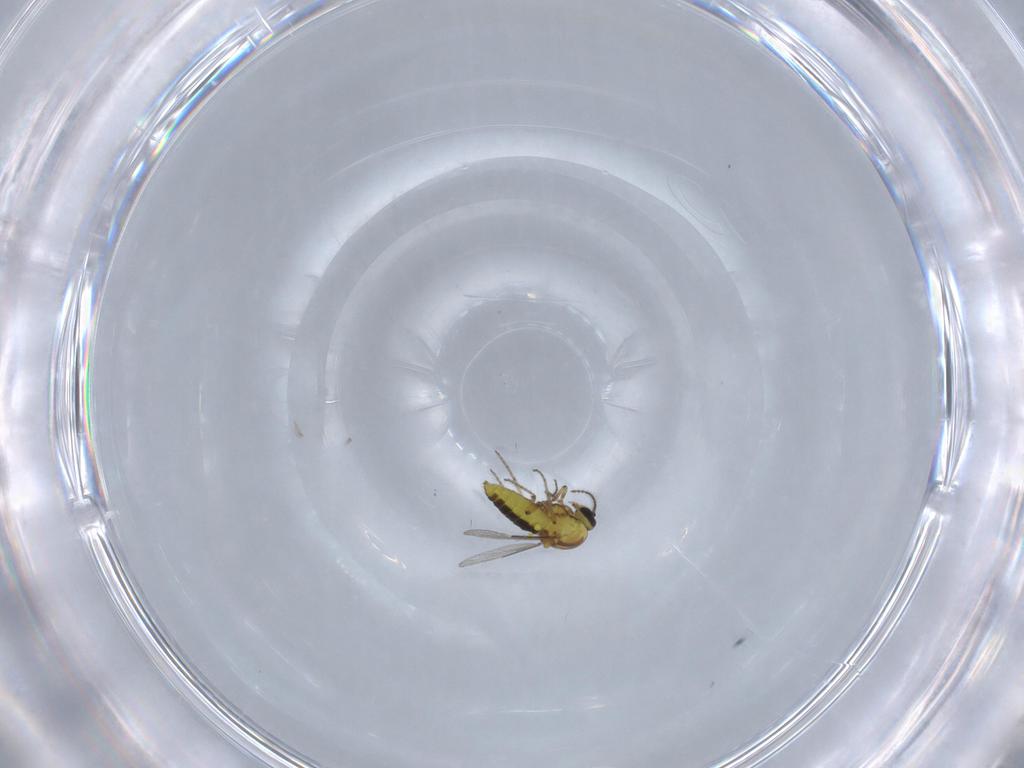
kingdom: Animalia
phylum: Arthropoda
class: Insecta
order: Diptera
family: Ceratopogonidae
